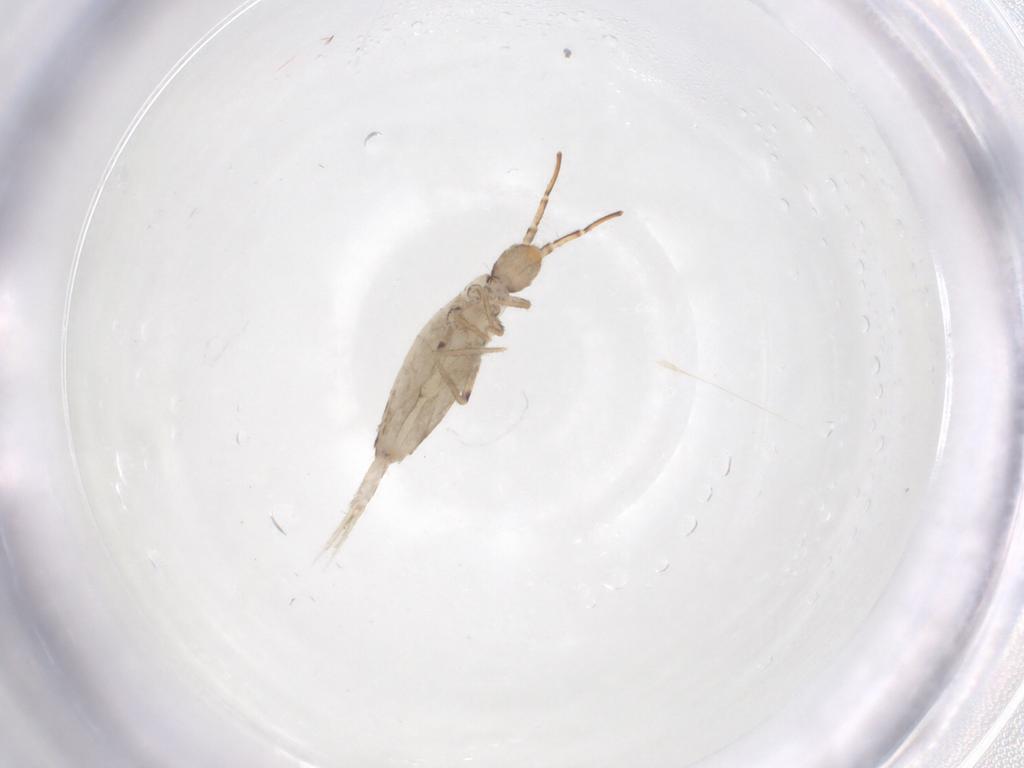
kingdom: Animalia
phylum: Arthropoda
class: Collembola
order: Entomobryomorpha
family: Entomobryidae
